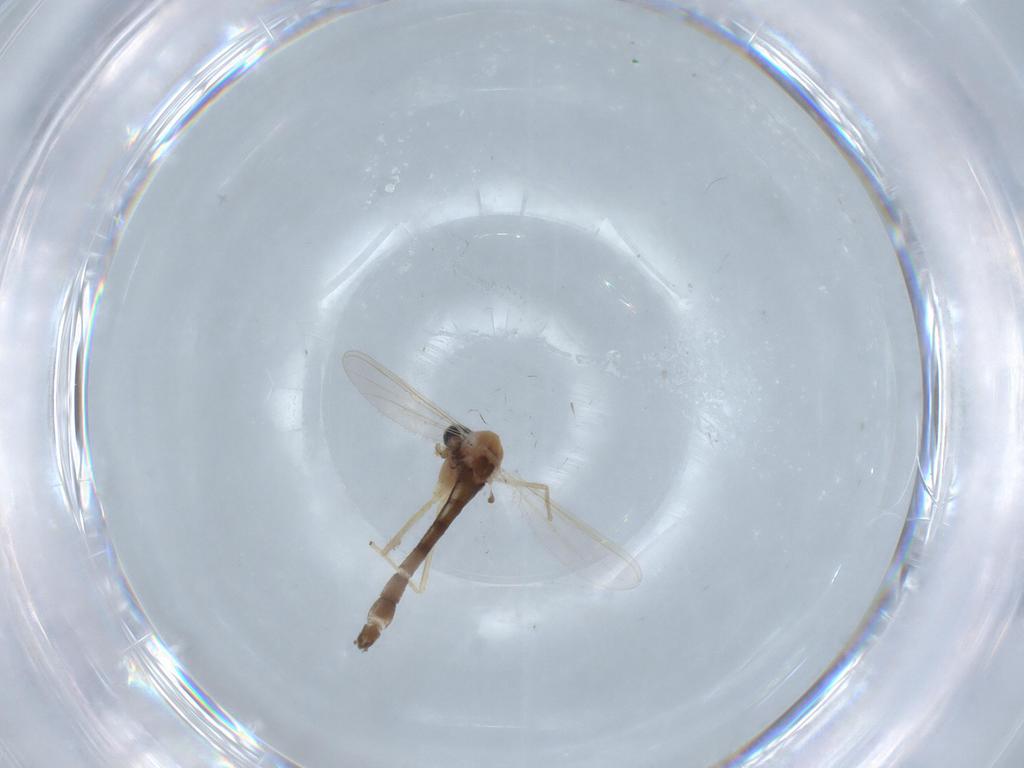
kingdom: Animalia
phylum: Arthropoda
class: Insecta
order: Diptera
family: Chironomidae
